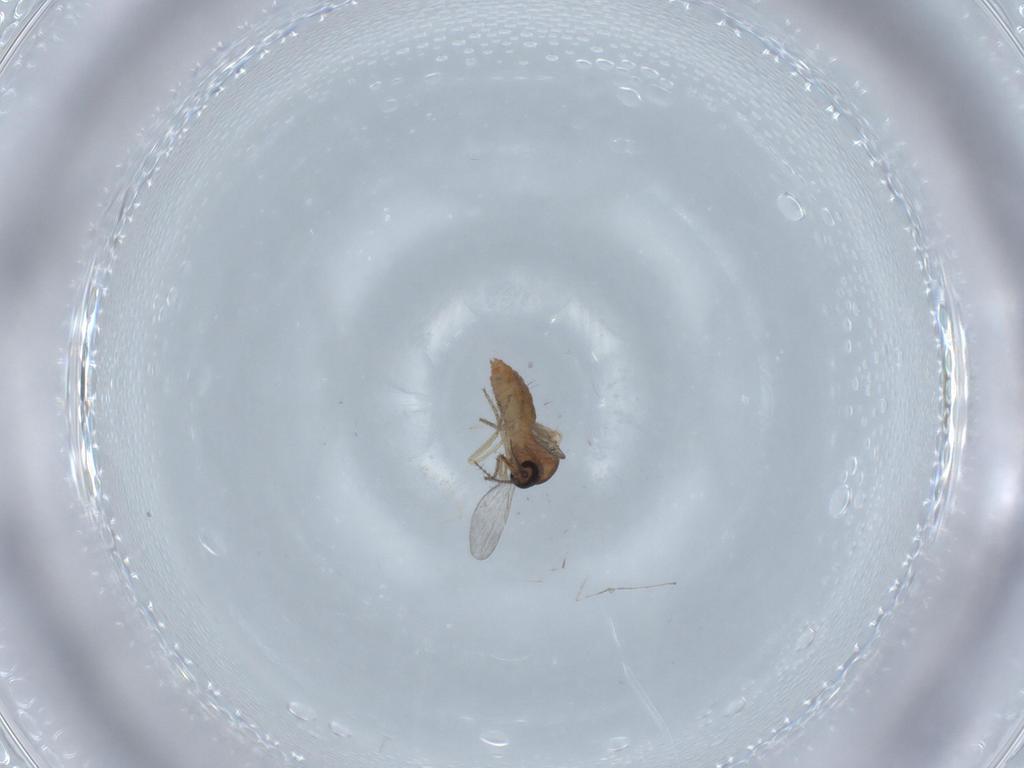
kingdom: Animalia
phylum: Arthropoda
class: Insecta
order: Diptera
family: Ceratopogonidae
